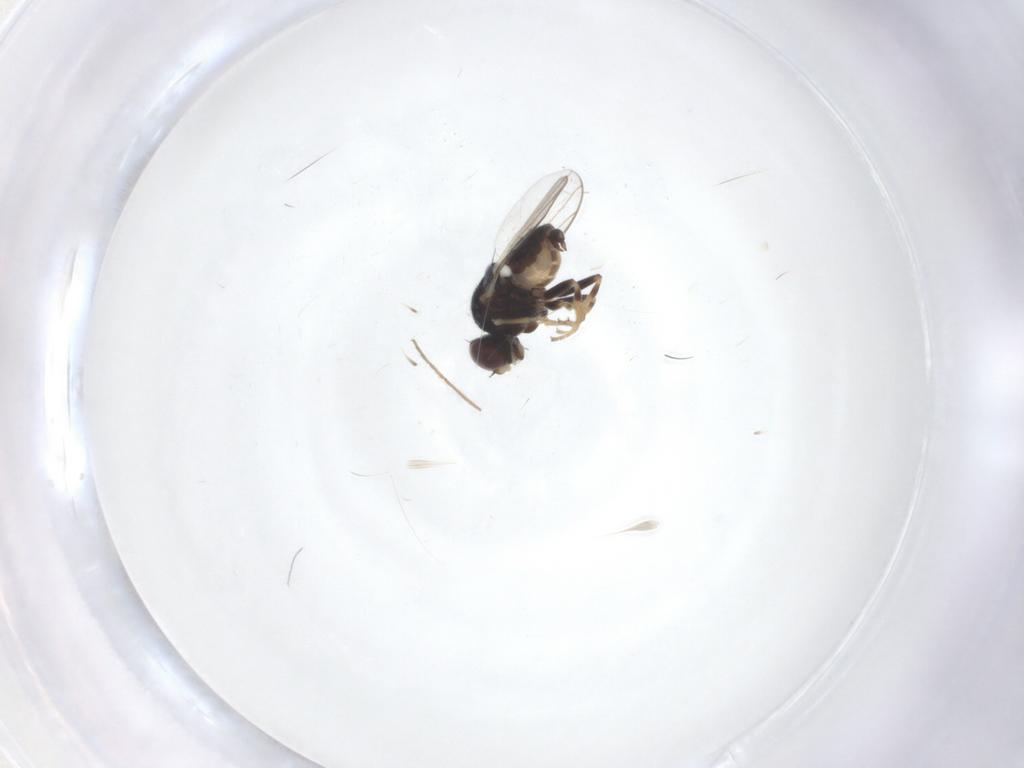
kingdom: Animalia
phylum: Arthropoda
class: Insecta
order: Diptera
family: Chloropidae
